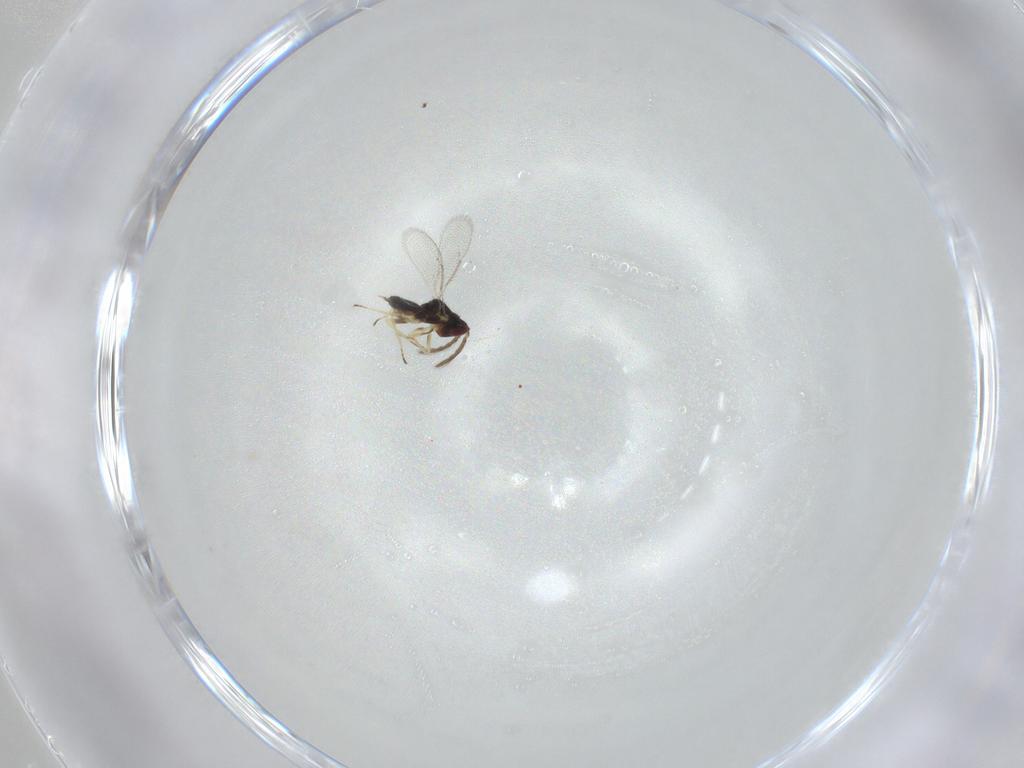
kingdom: Animalia
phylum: Arthropoda
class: Insecta
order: Hymenoptera
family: Eulophidae
